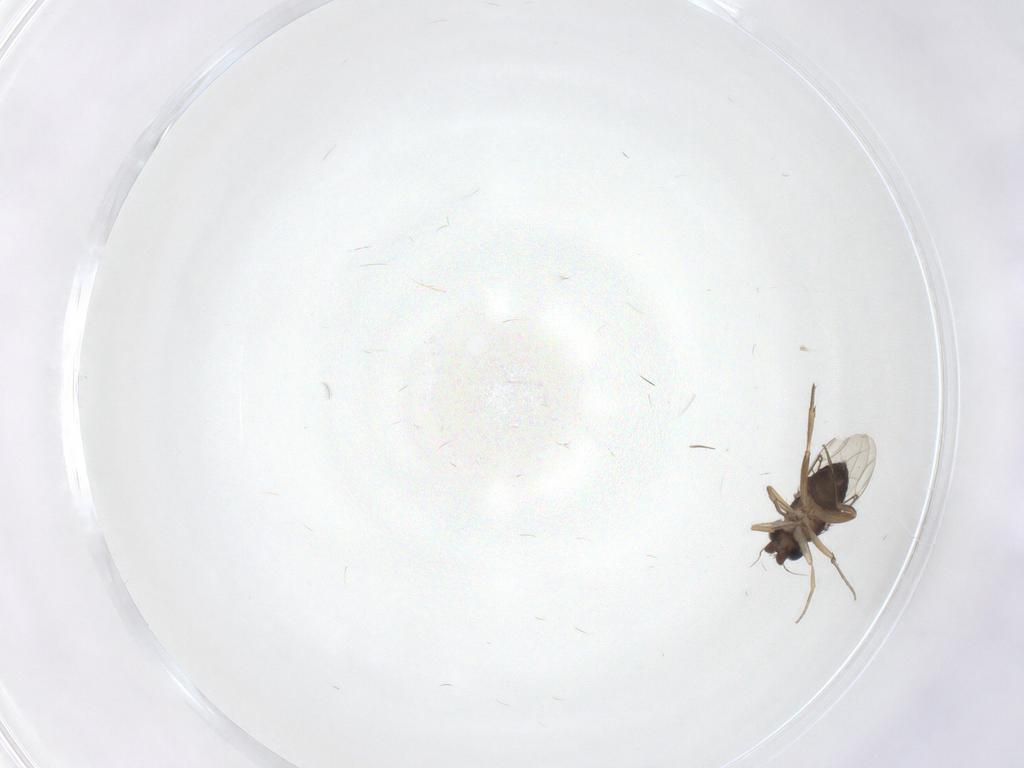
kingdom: Animalia
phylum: Arthropoda
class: Insecta
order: Diptera
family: Phoridae
